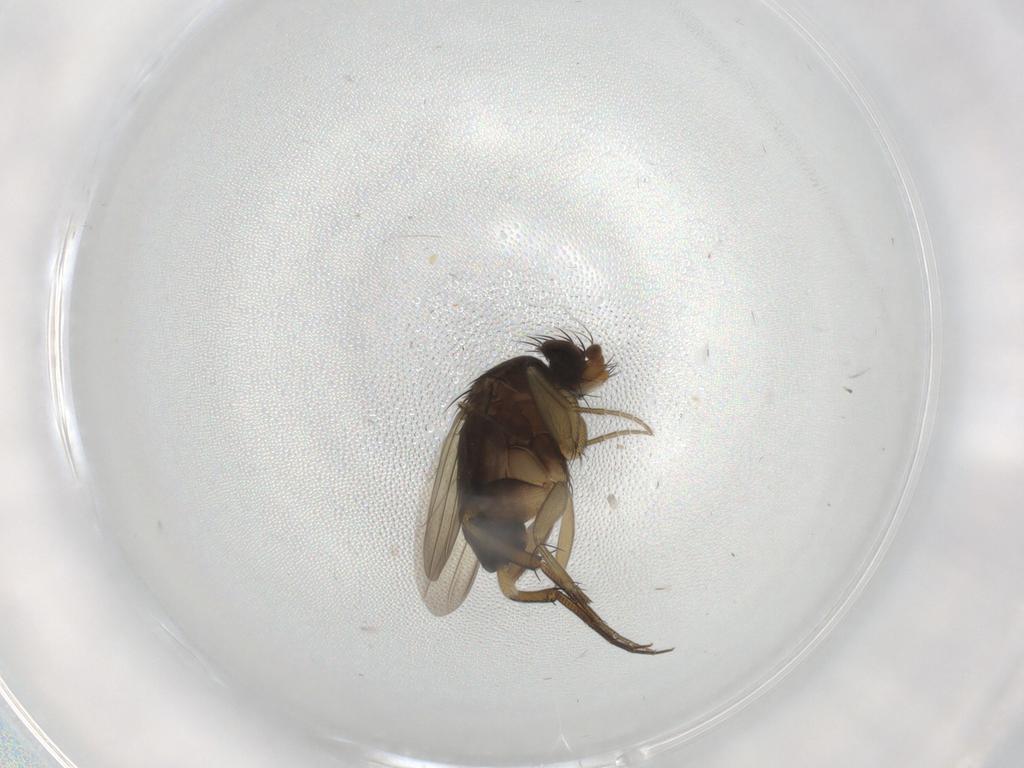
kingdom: Animalia
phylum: Arthropoda
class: Insecta
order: Diptera
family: Phoridae
